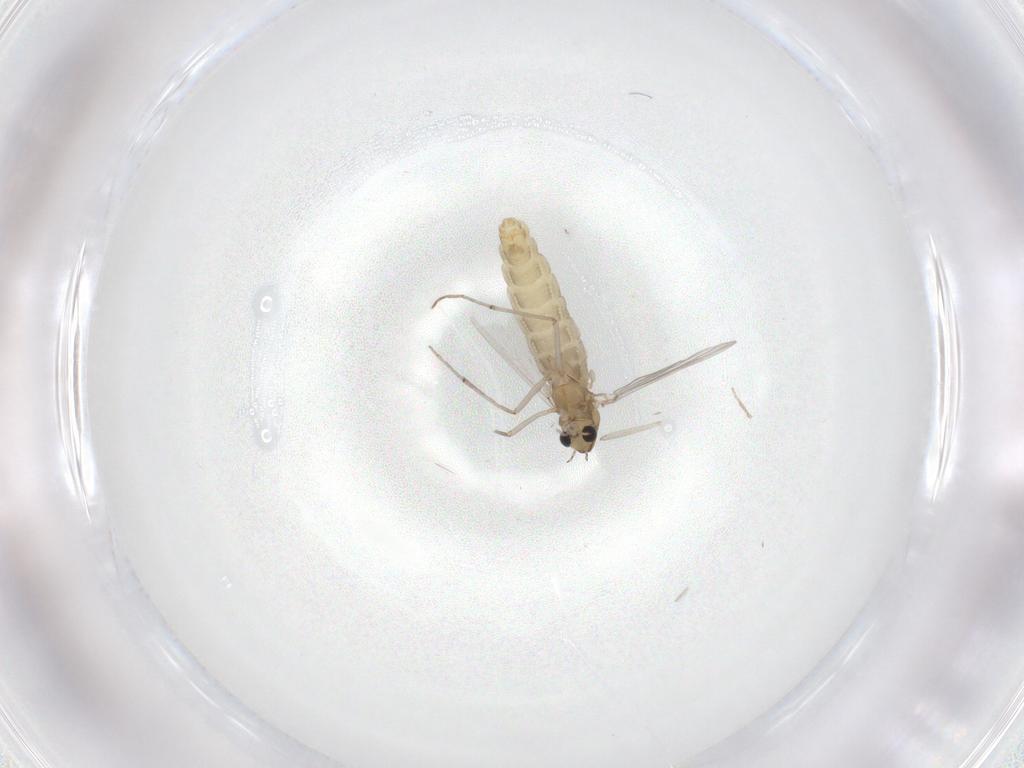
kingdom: Animalia
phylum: Arthropoda
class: Insecta
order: Diptera
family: Chironomidae
